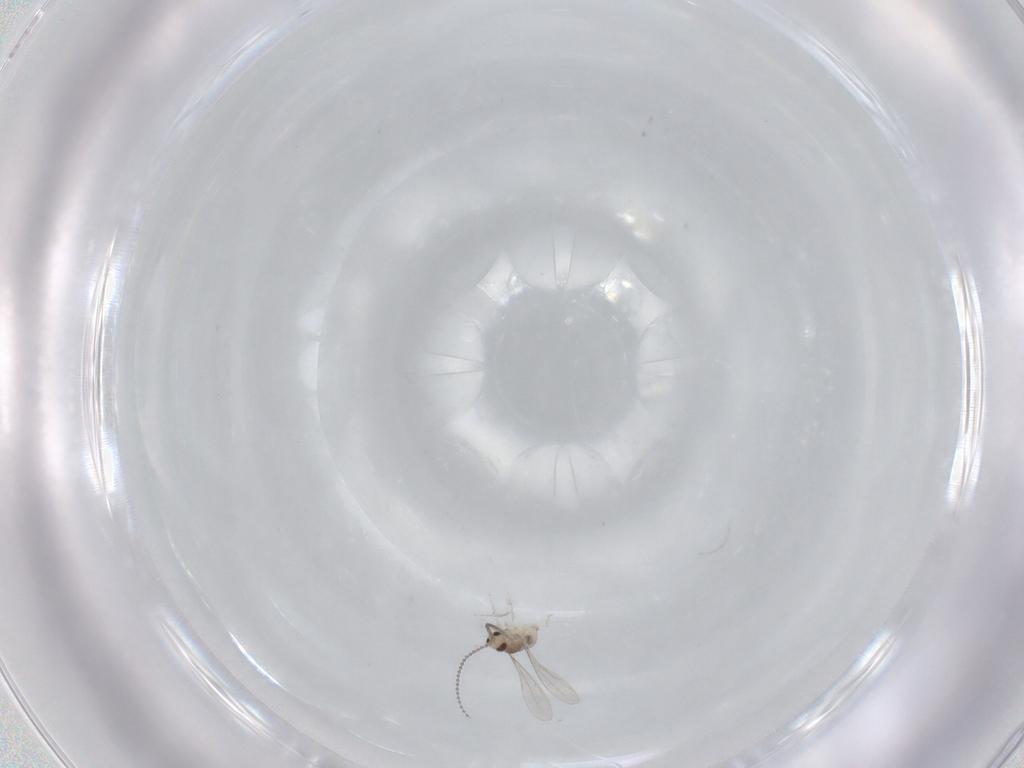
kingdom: Animalia
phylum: Arthropoda
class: Insecta
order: Diptera
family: Cecidomyiidae
